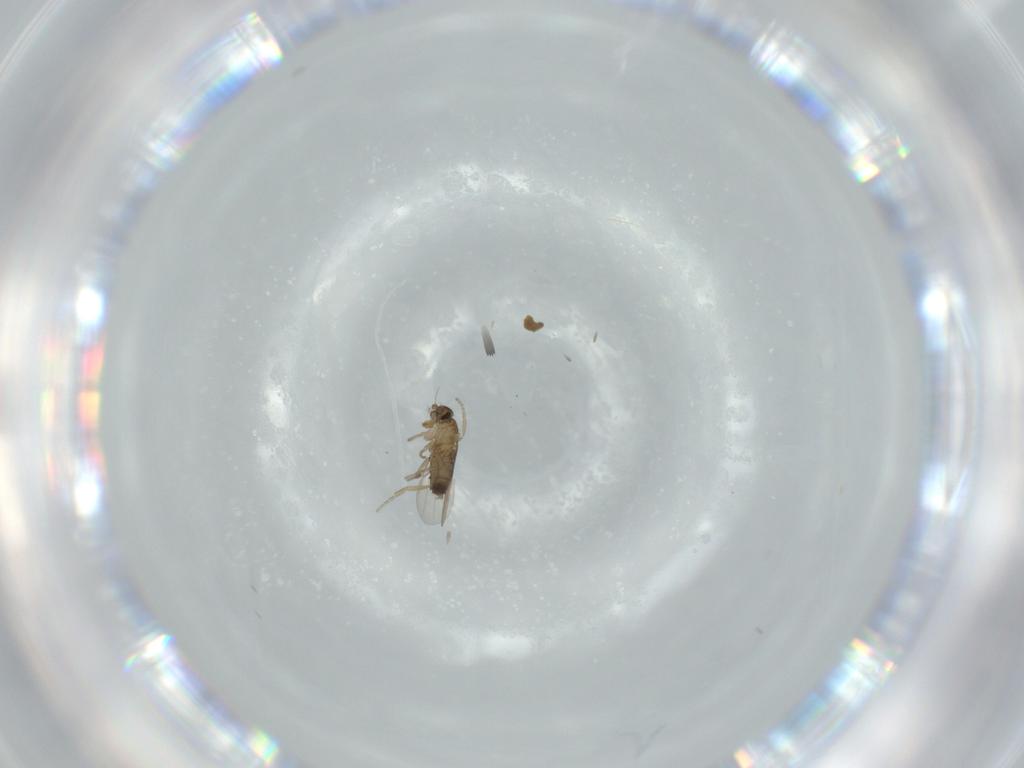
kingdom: Animalia
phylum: Arthropoda
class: Insecta
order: Diptera
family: Sphaeroceridae
